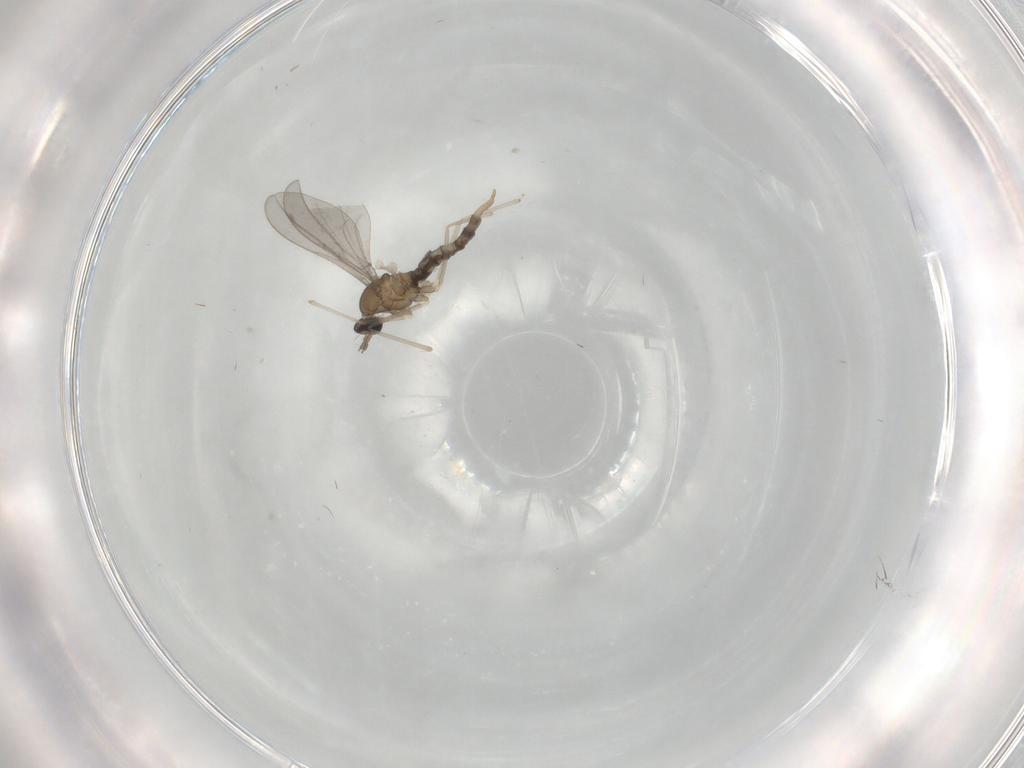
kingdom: Animalia
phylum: Arthropoda
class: Insecta
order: Diptera
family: Cecidomyiidae
